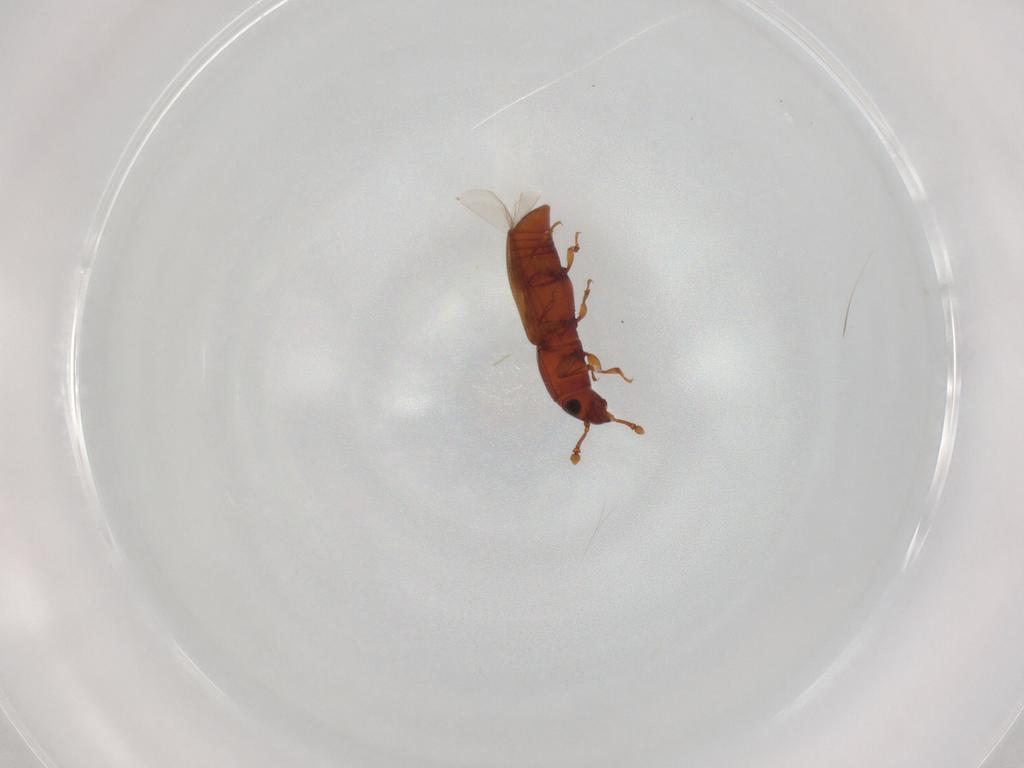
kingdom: Animalia
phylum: Arthropoda
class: Insecta
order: Coleoptera
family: Monotomidae
